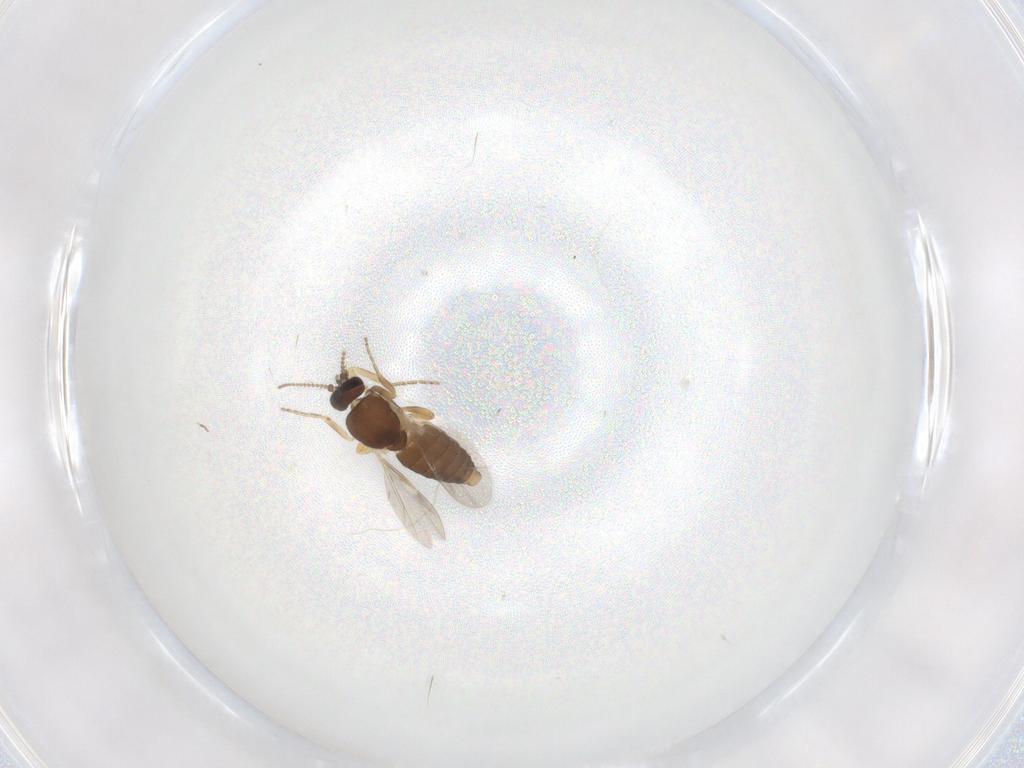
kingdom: Animalia
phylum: Arthropoda
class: Insecta
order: Diptera
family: Ceratopogonidae
